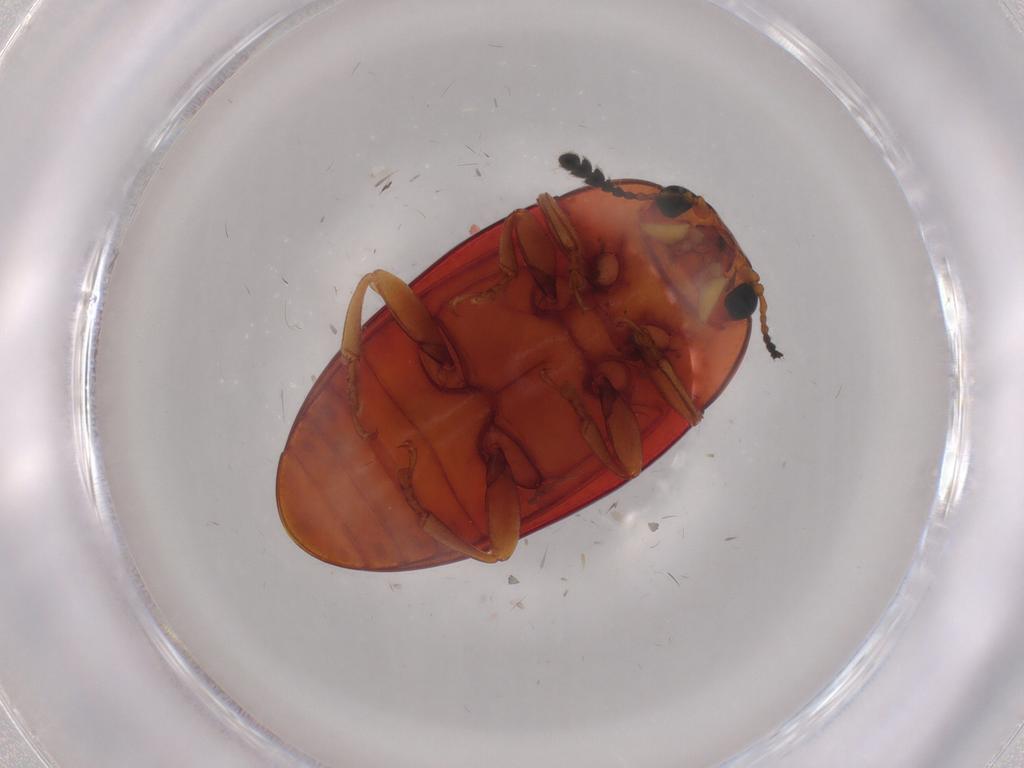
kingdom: Animalia
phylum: Arthropoda
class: Insecta
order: Coleoptera
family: Erotylidae
